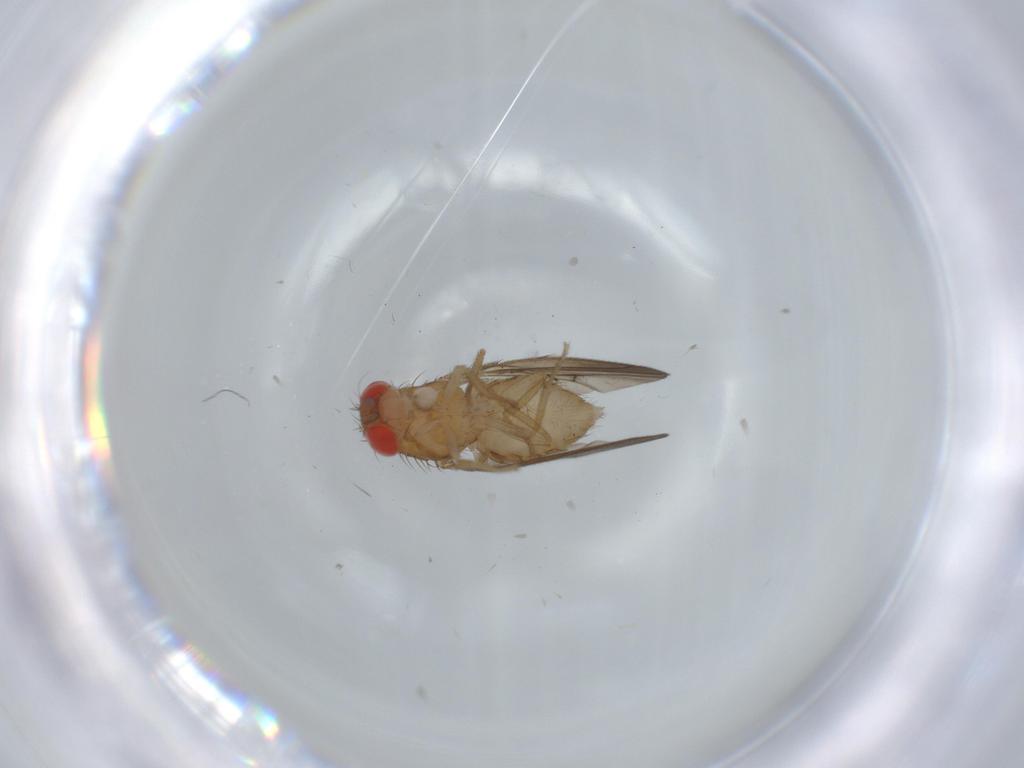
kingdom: Animalia
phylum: Arthropoda
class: Insecta
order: Diptera
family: Drosophilidae
